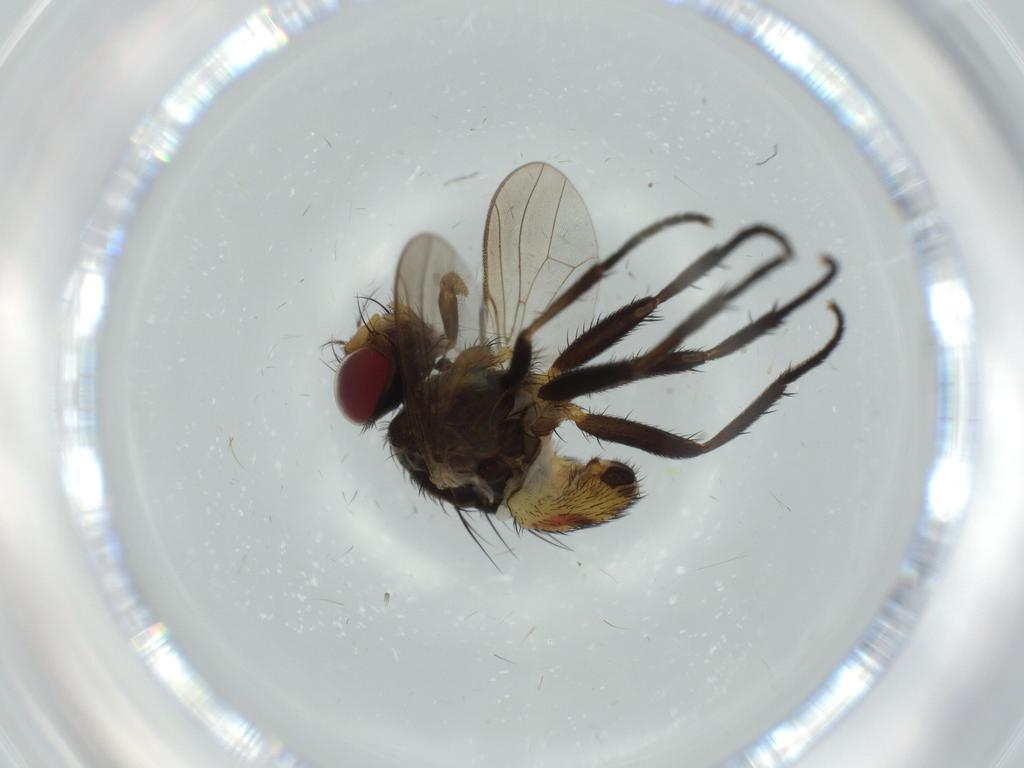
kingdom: Animalia
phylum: Arthropoda
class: Insecta
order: Diptera
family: Anthomyiidae
